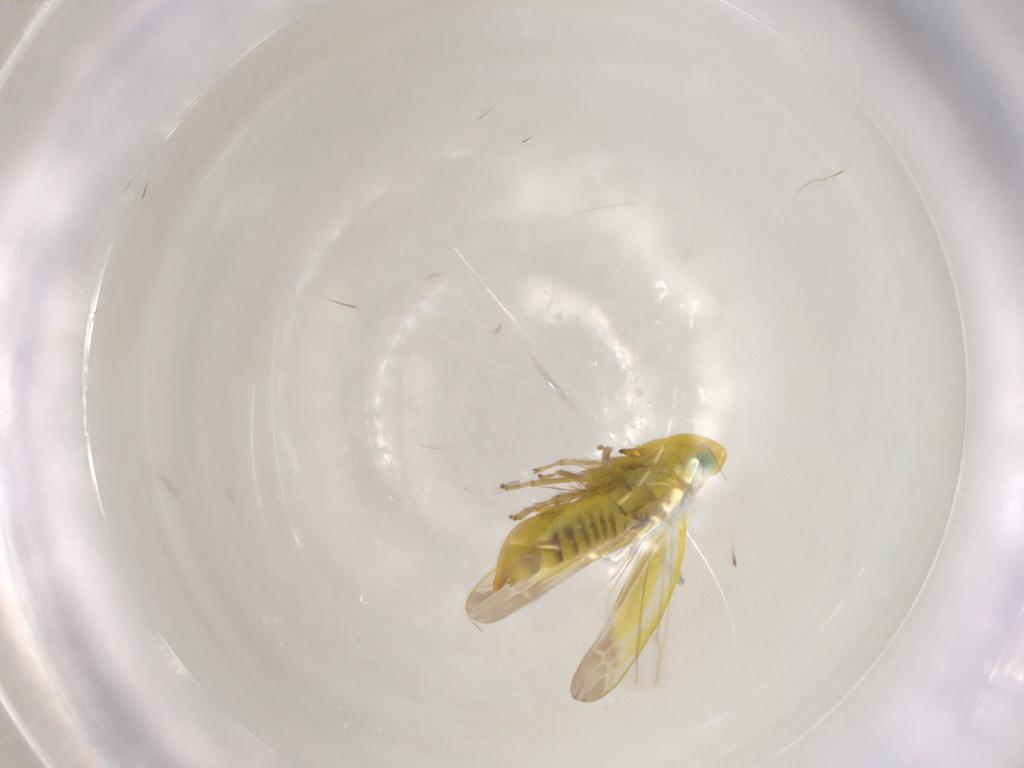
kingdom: Animalia
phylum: Arthropoda
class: Insecta
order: Hemiptera
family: Cicadellidae
